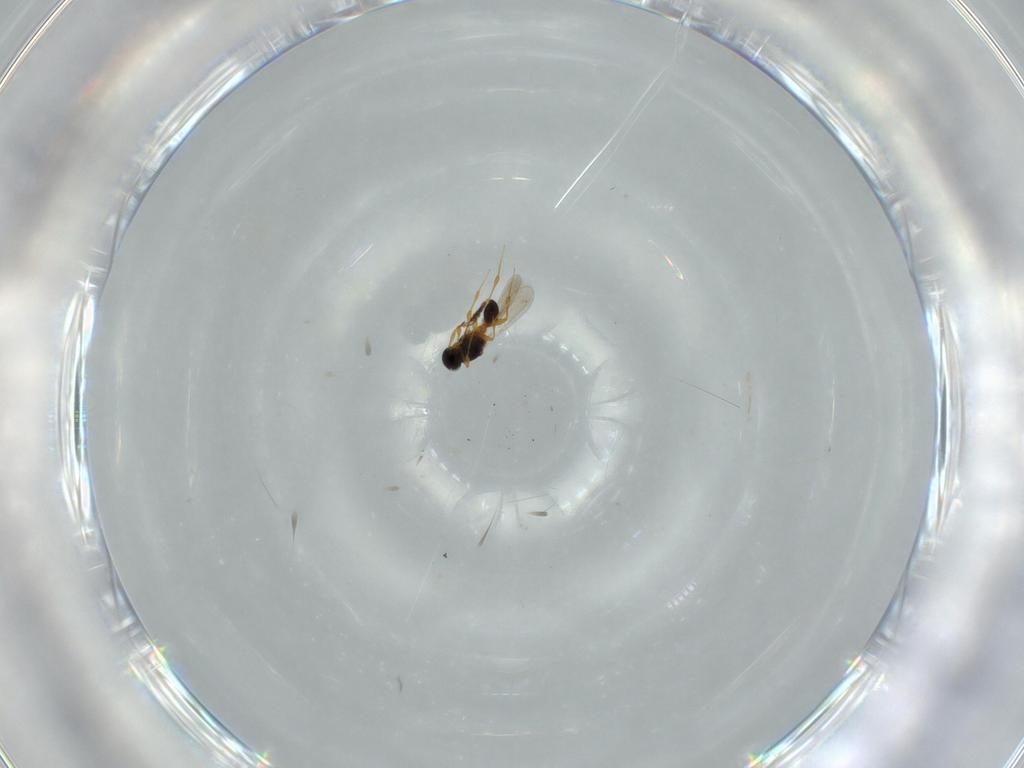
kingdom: Animalia
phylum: Arthropoda
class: Insecta
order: Hymenoptera
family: Platygastridae
